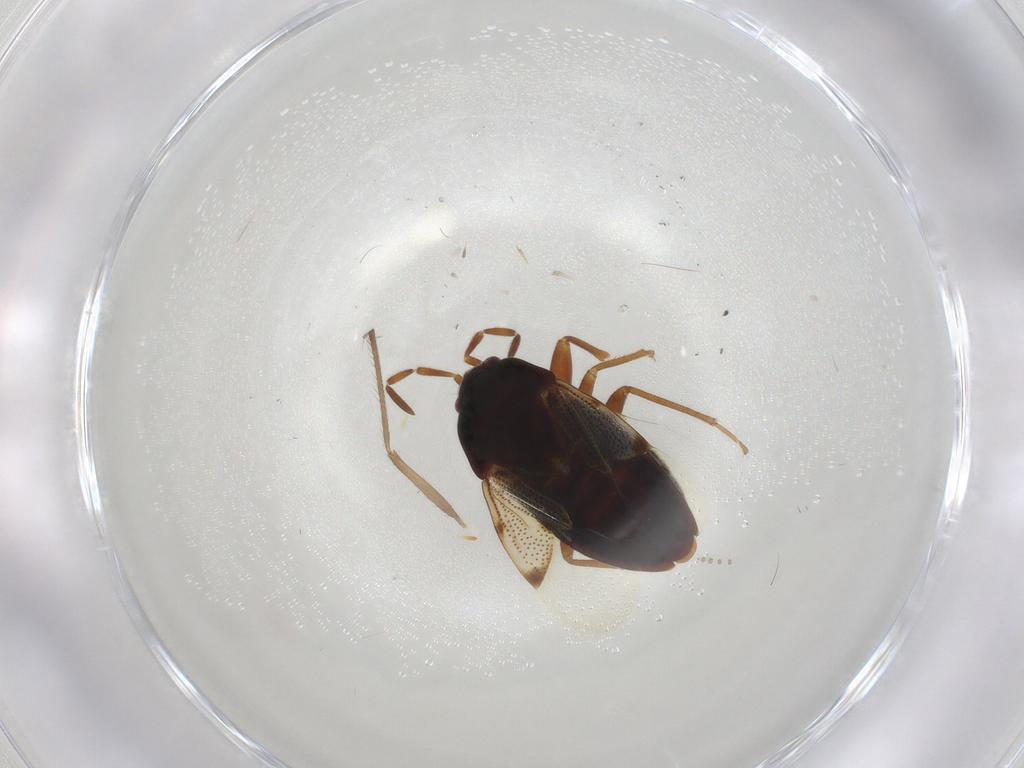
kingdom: Animalia
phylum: Arthropoda
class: Insecta
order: Hemiptera
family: Rhyparochromidae
